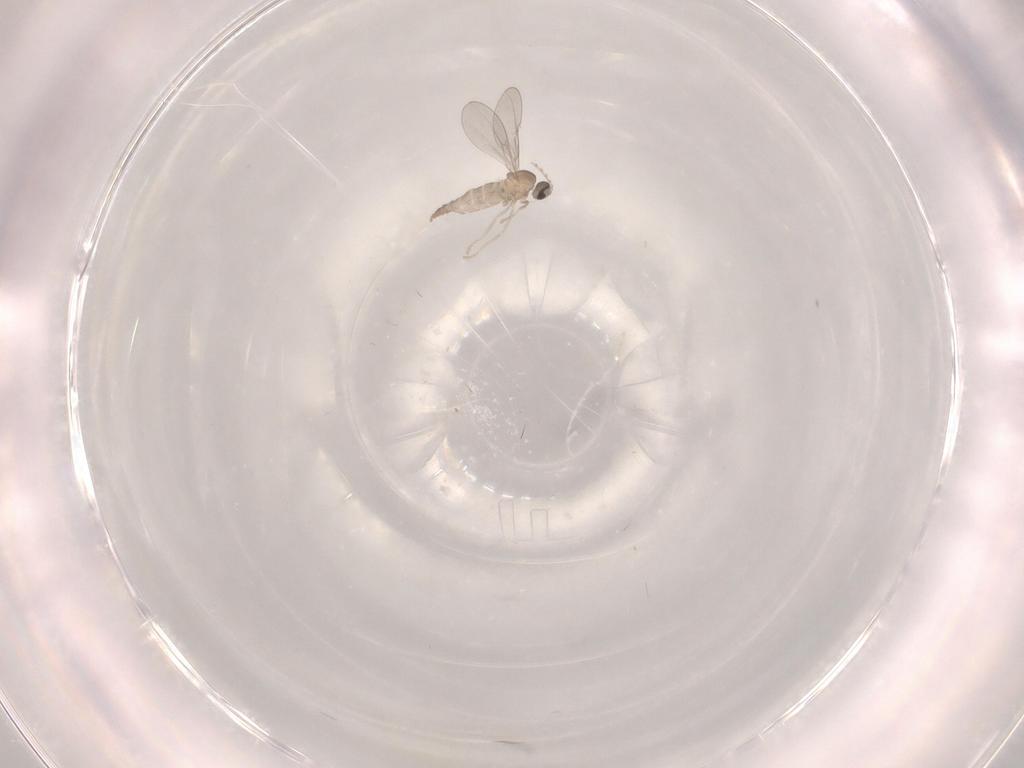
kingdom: Animalia
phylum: Arthropoda
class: Insecta
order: Diptera
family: Cecidomyiidae
